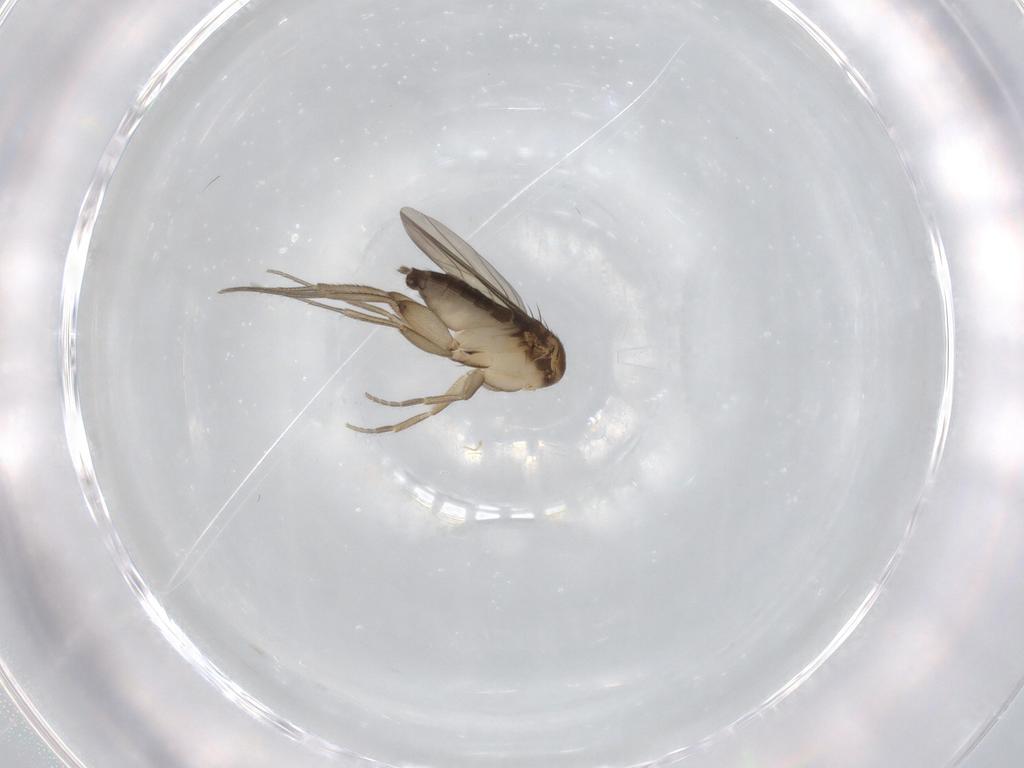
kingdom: Animalia
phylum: Arthropoda
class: Insecta
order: Diptera
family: Phoridae
